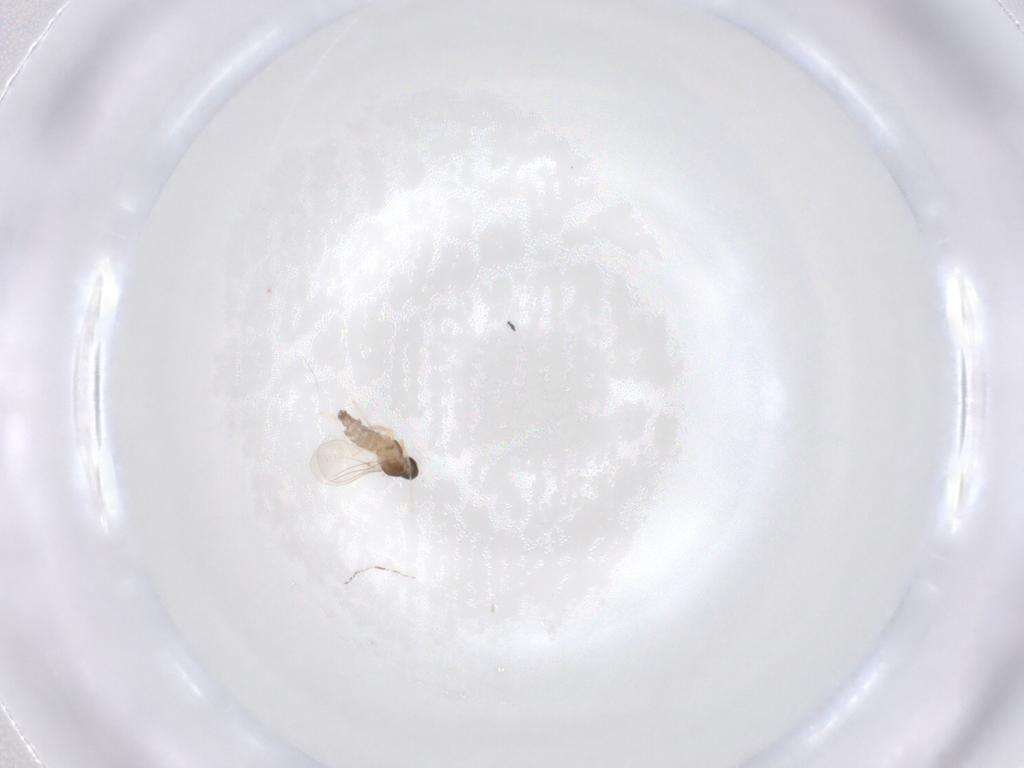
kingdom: Animalia
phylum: Arthropoda
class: Insecta
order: Diptera
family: Cecidomyiidae
